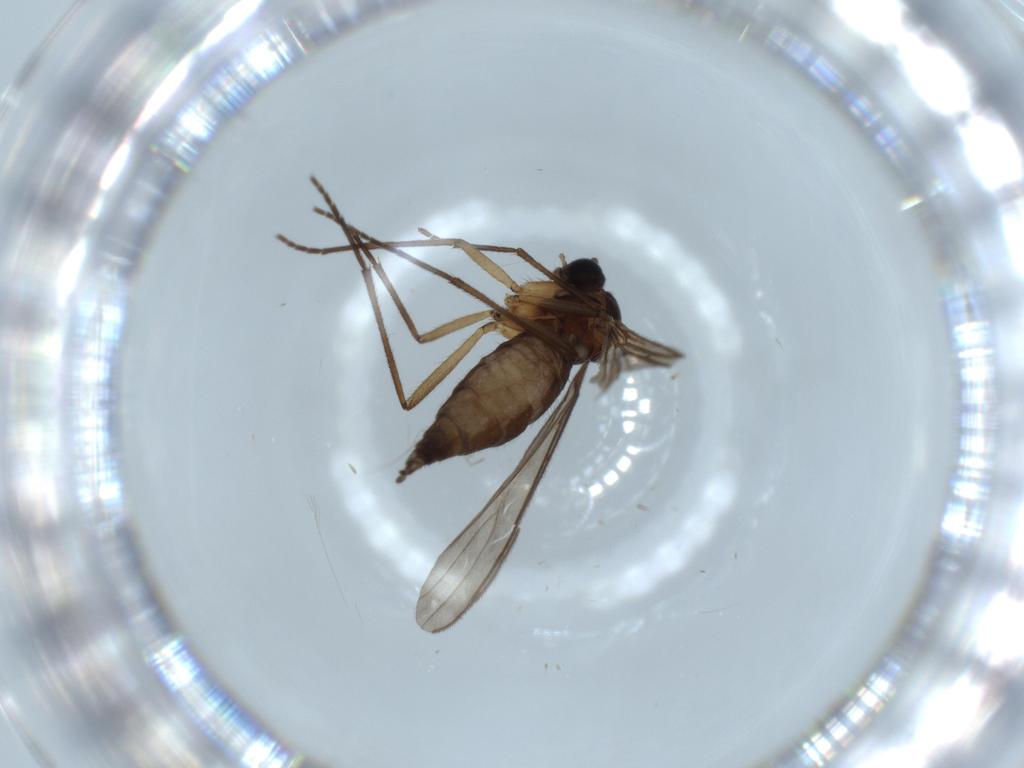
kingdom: Animalia
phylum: Arthropoda
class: Insecta
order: Diptera
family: Sciaridae
